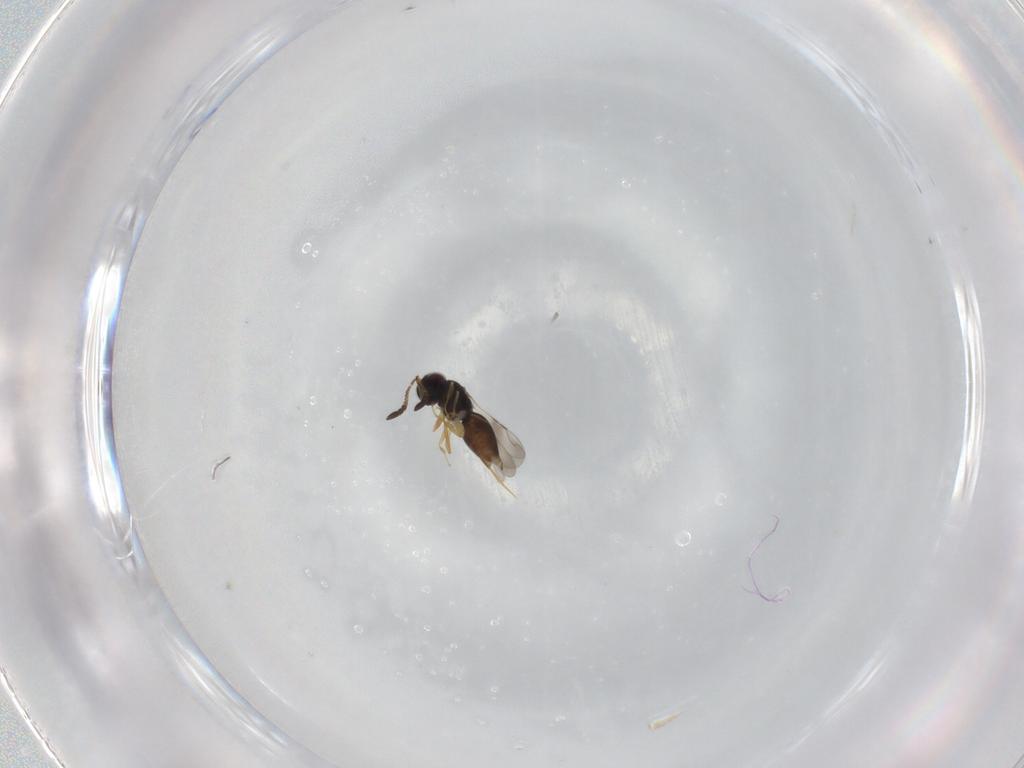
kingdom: Animalia
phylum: Arthropoda
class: Insecta
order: Hymenoptera
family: Ceraphronidae
